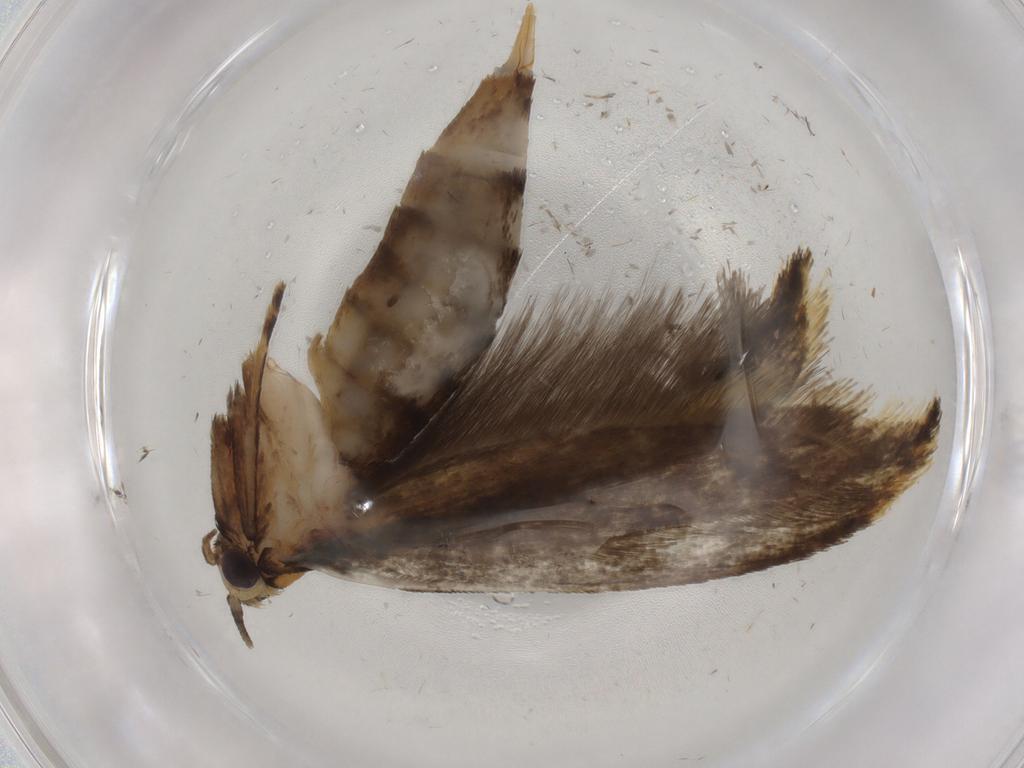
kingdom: Animalia
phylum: Arthropoda
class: Insecta
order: Lepidoptera
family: Tineidae
